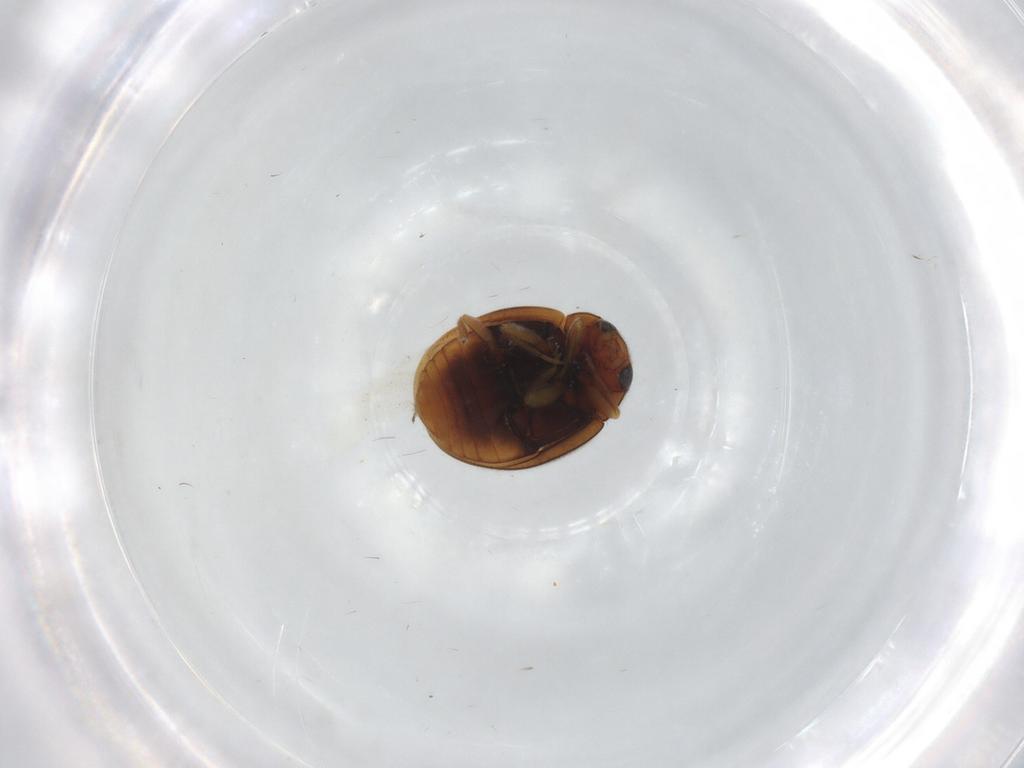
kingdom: Animalia
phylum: Arthropoda
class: Insecta
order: Coleoptera
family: Coccinellidae
